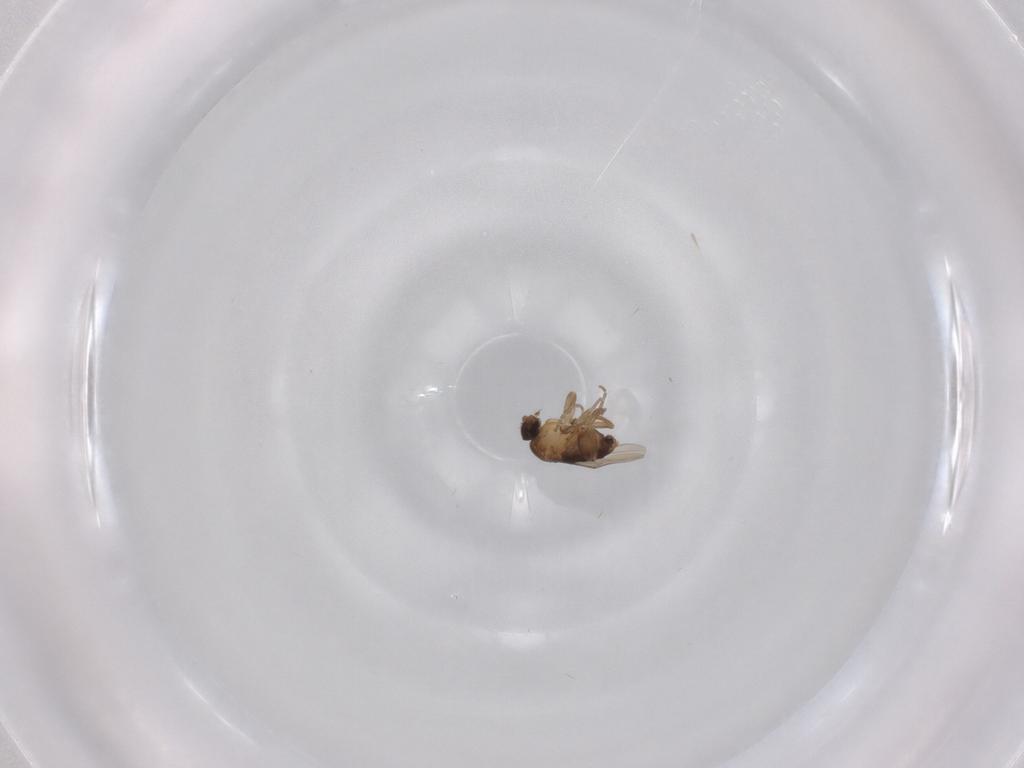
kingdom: Animalia
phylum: Arthropoda
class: Insecta
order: Diptera
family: Phoridae
